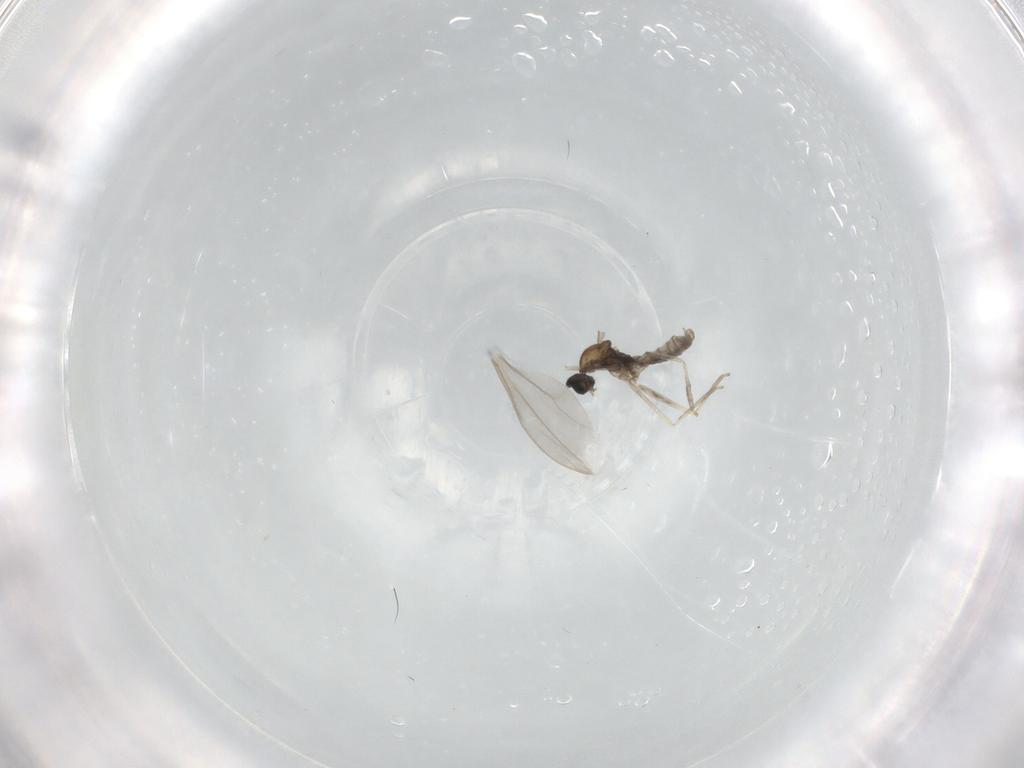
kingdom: Animalia
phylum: Arthropoda
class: Insecta
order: Diptera
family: Cecidomyiidae
